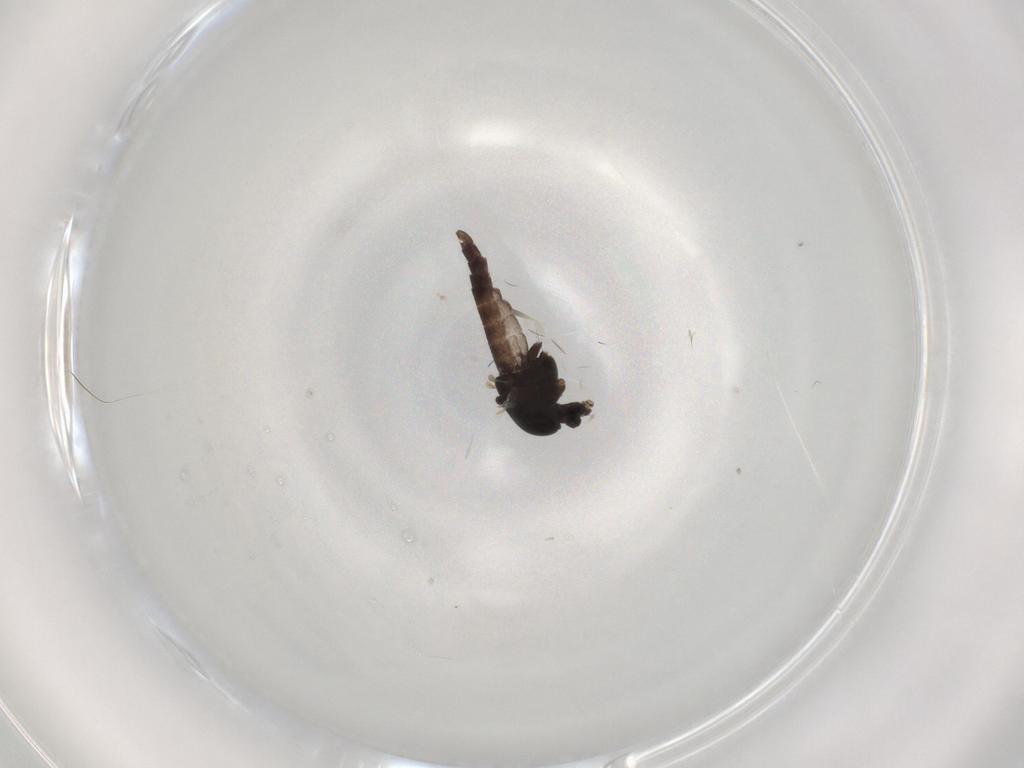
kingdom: Animalia
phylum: Arthropoda
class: Insecta
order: Diptera
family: Chironomidae
